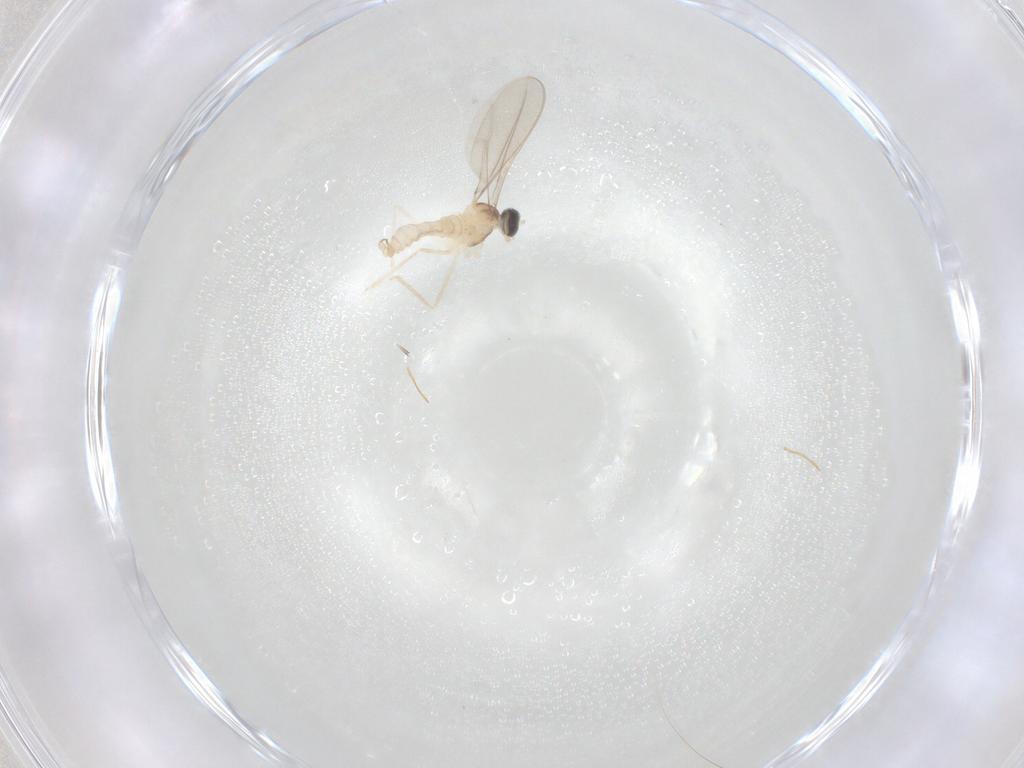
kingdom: Animalia
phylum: Arthropoda
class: Insecta
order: Diptera
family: Cecidomyiidae
